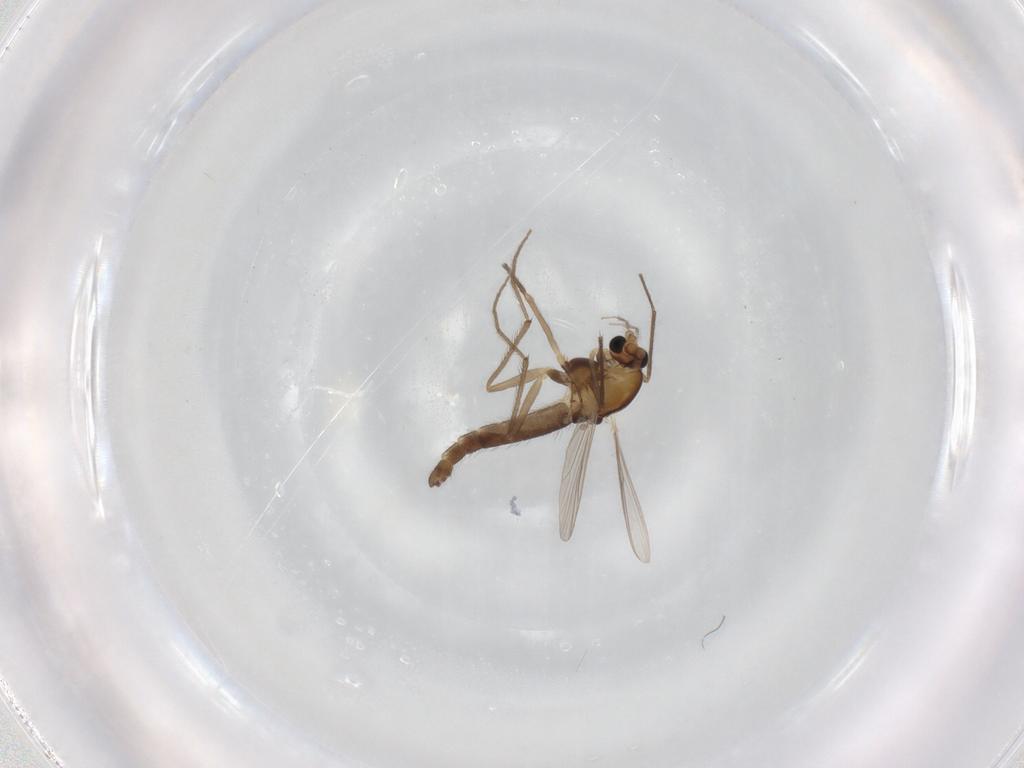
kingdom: Animalia
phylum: Arthropoda
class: Insecta
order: Diptera
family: Chironomidae
